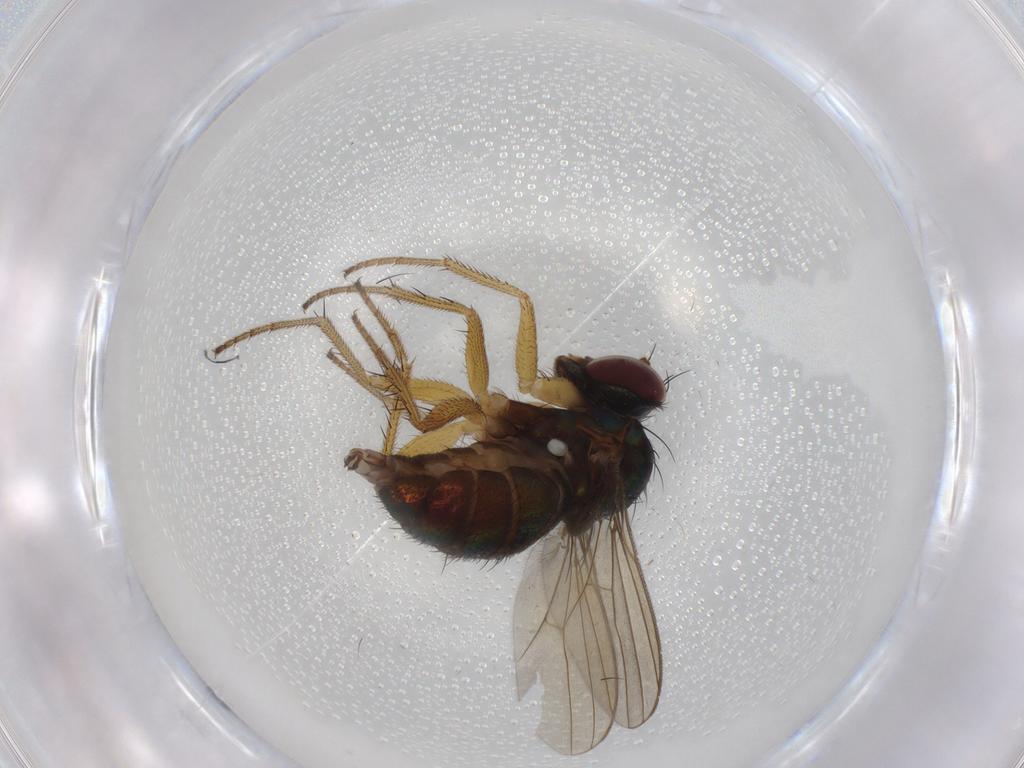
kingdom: Animalia
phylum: Arthropoda
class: Insecta
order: Diptera
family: Dolichopodidae
